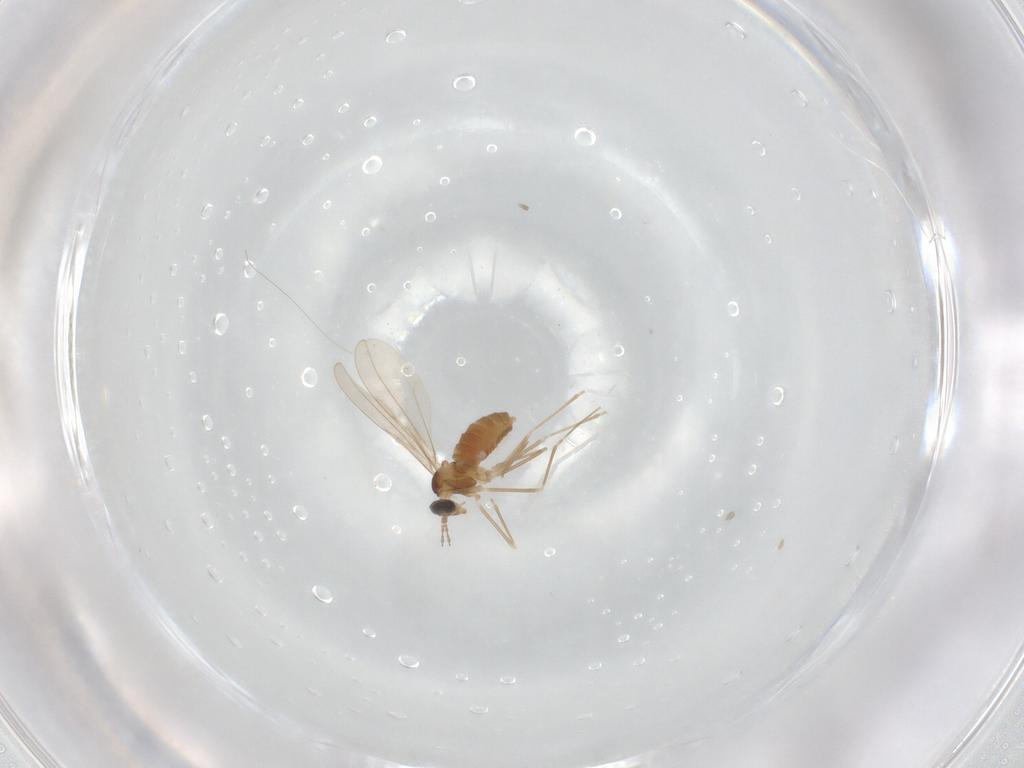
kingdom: Animalia
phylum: Arthropoda
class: Insecta
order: Diptera
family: Cecidomyiidae
